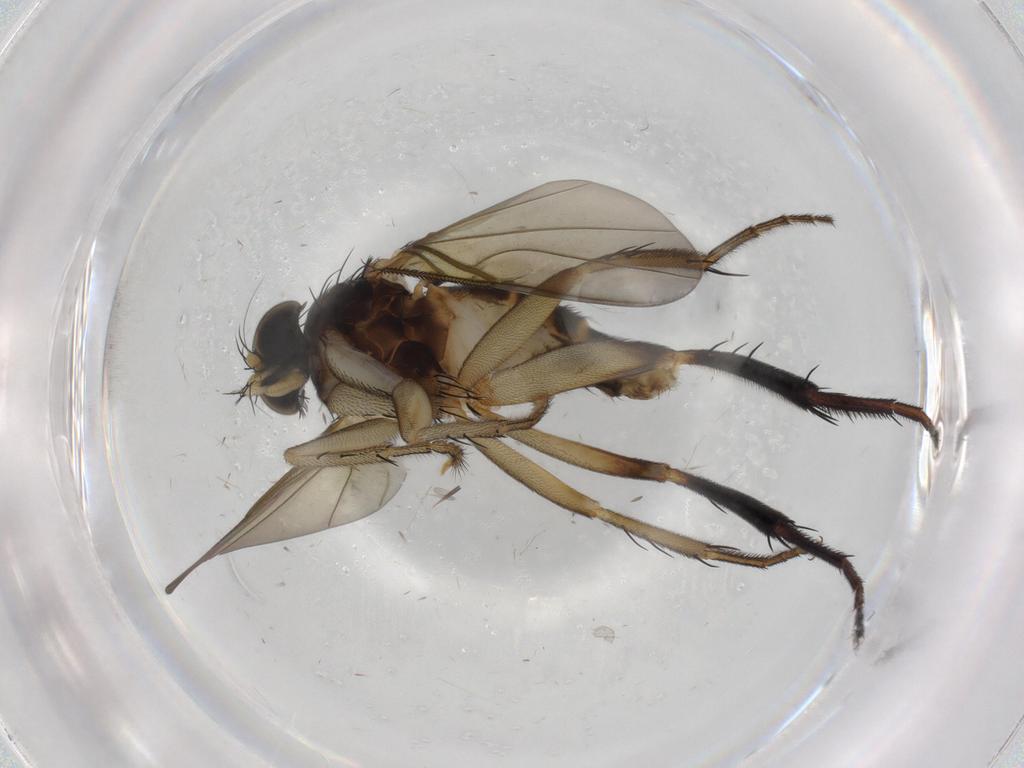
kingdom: Animalia
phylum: Arthropoda
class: Insecta
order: Diptera
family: Phoridae
